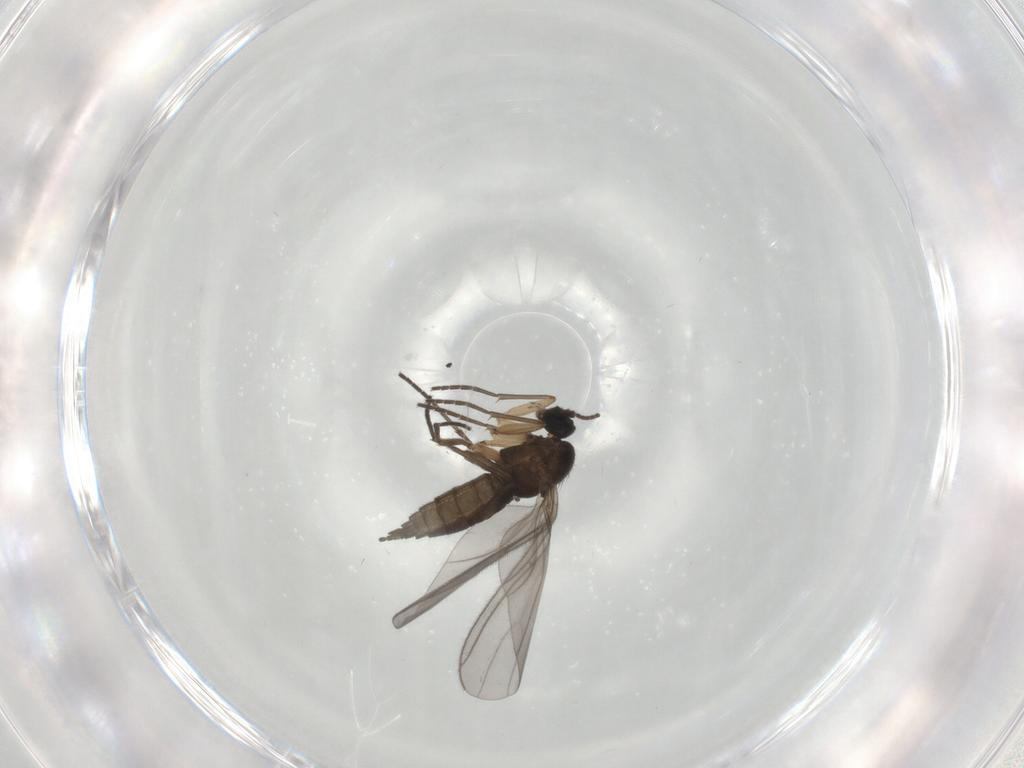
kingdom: Animalia
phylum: Arthropoda
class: Insecta
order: Diptera
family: Sciaridae
